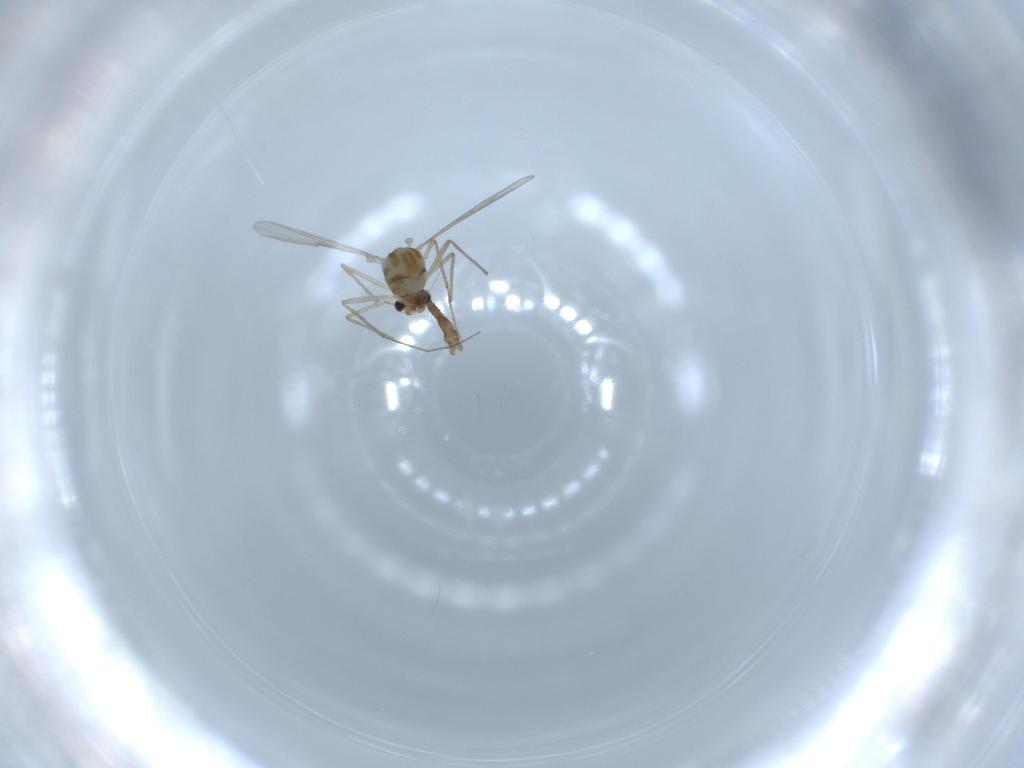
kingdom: Animalia
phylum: Arthropoda
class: Insecta
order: Diptera
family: Chironomidae
